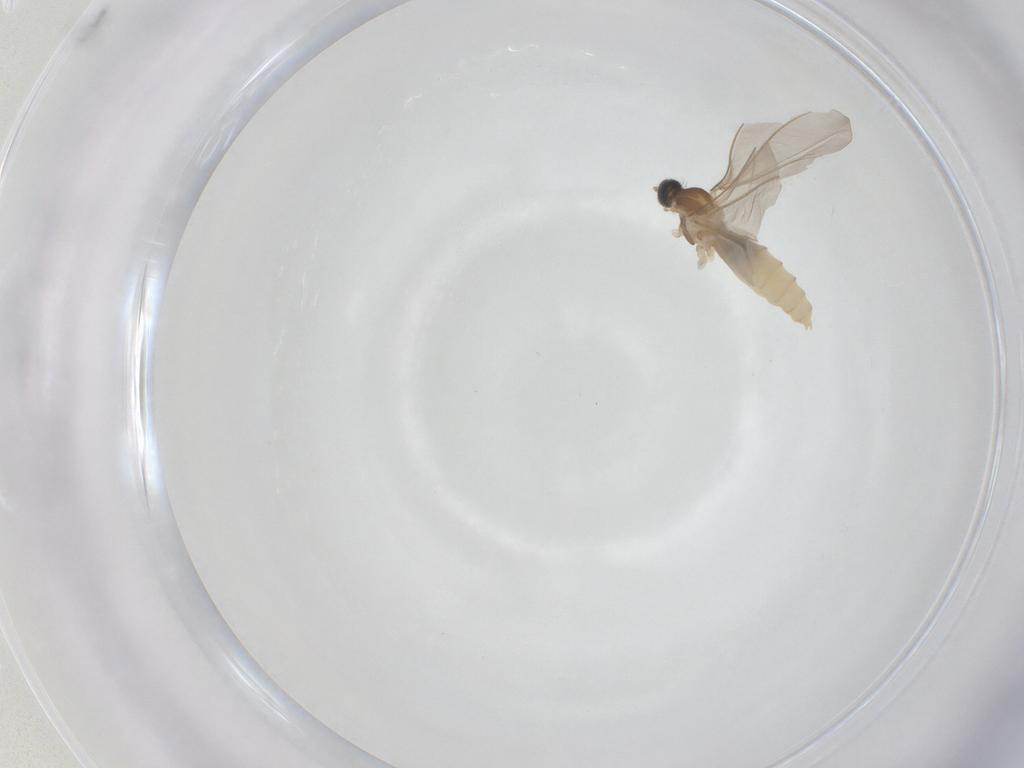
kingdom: Animalia
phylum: Arthropoda
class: Insecta
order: Diptera
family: Cecidomyiidae
